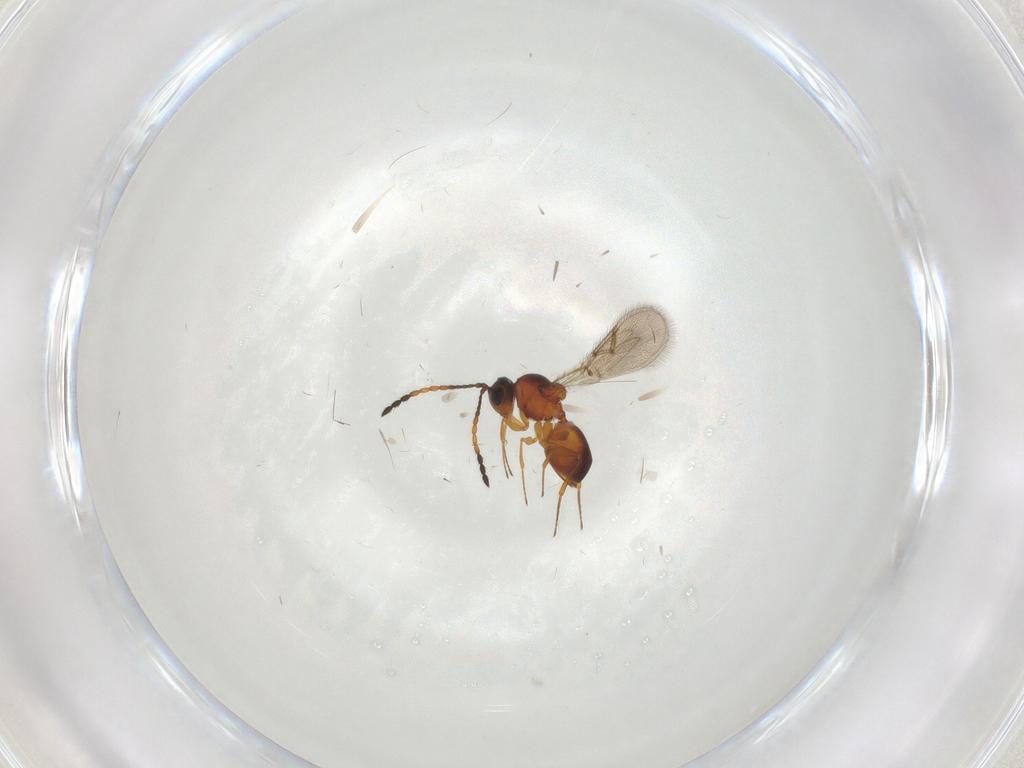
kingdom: Animalia
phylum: Arthropoda
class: Insecta
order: Hymenoptera
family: Figitidae
